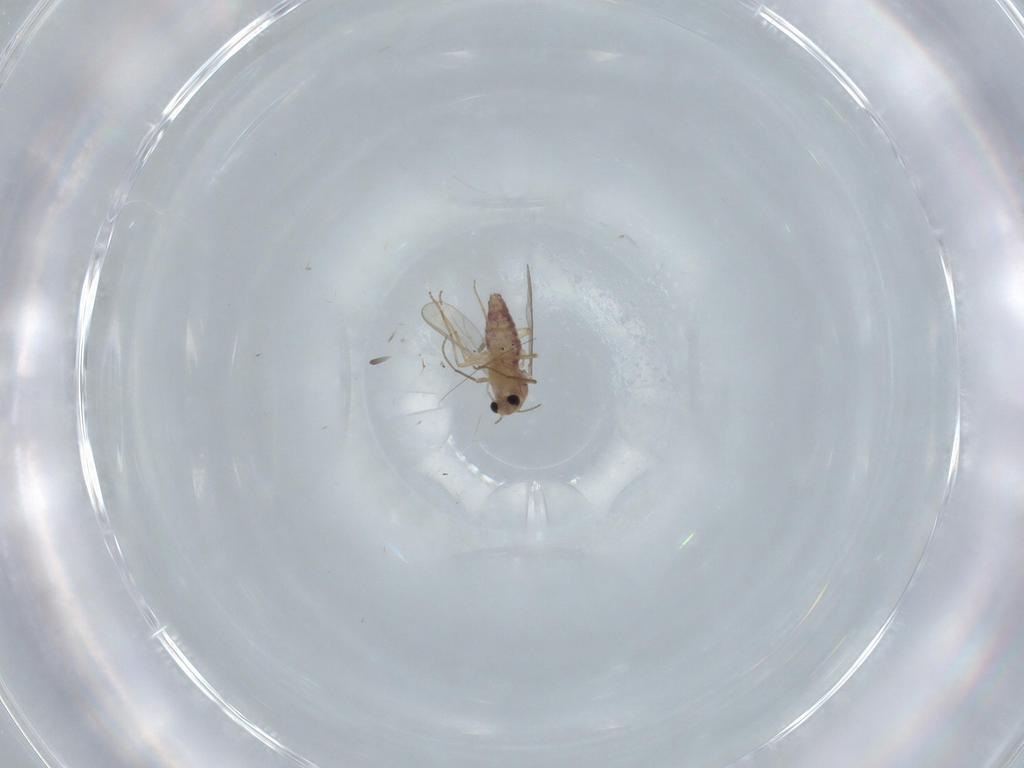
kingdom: Animalia
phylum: Arthropoda
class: Insecta
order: Diptera
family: Chironomidae
